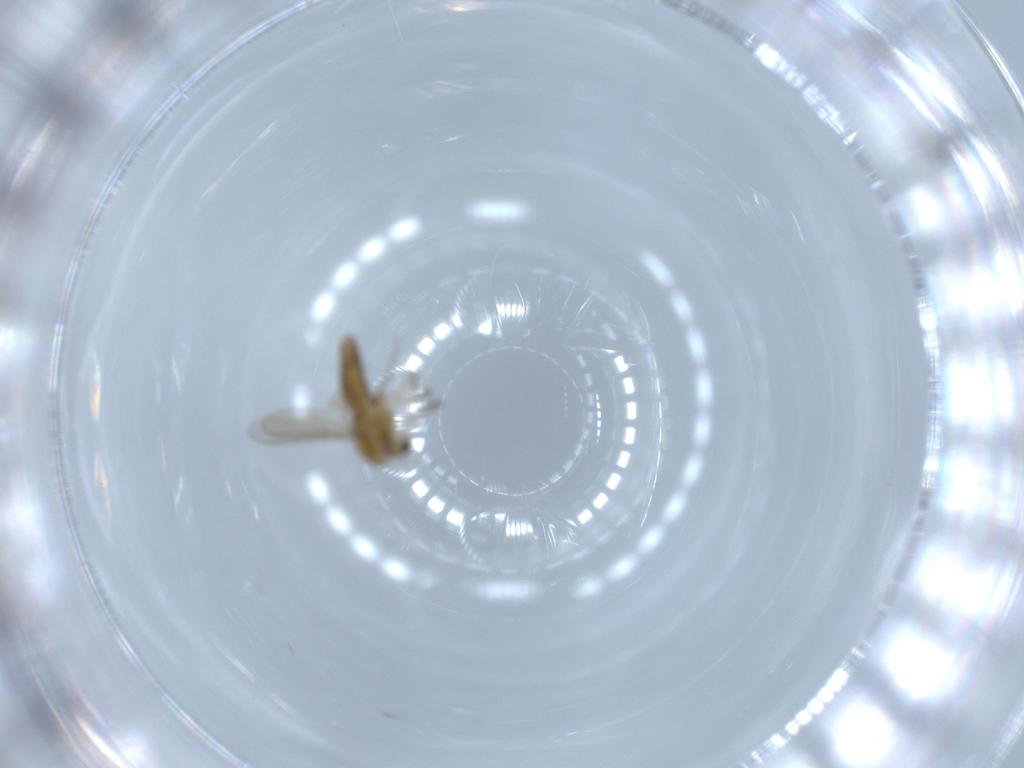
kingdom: Animalia
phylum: Arthropoda
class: Insecta
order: Diptera
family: Chironomidae
